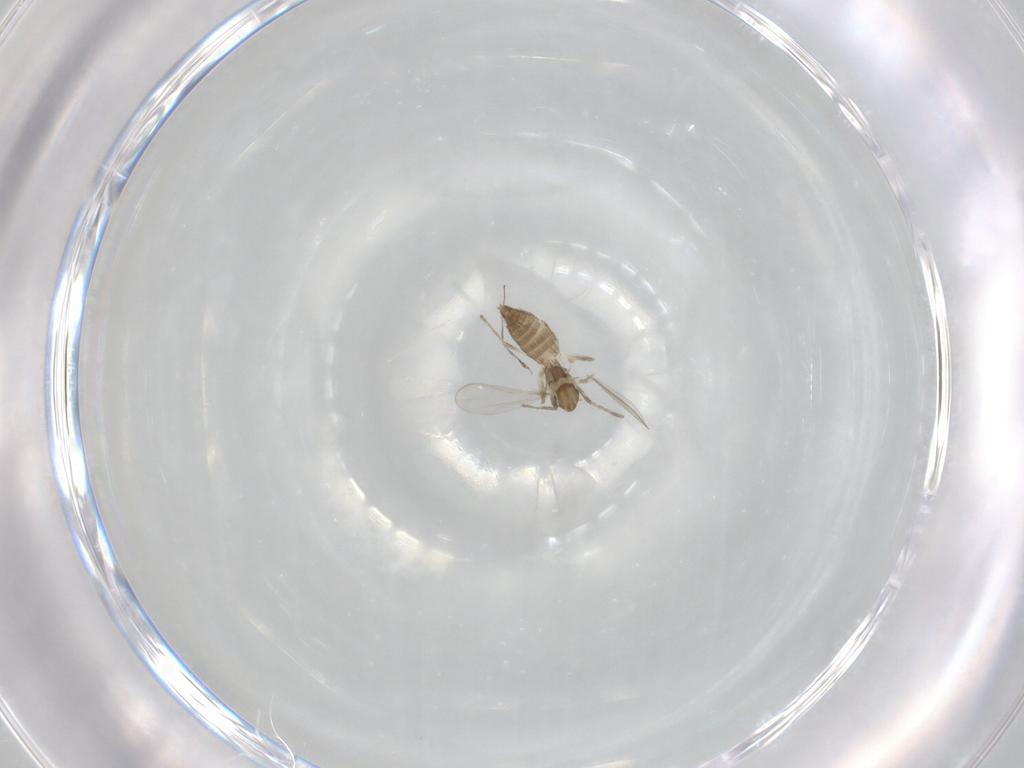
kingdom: Animalia
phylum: Arthropoda
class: Insecta
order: Diptera
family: Chironomidae
